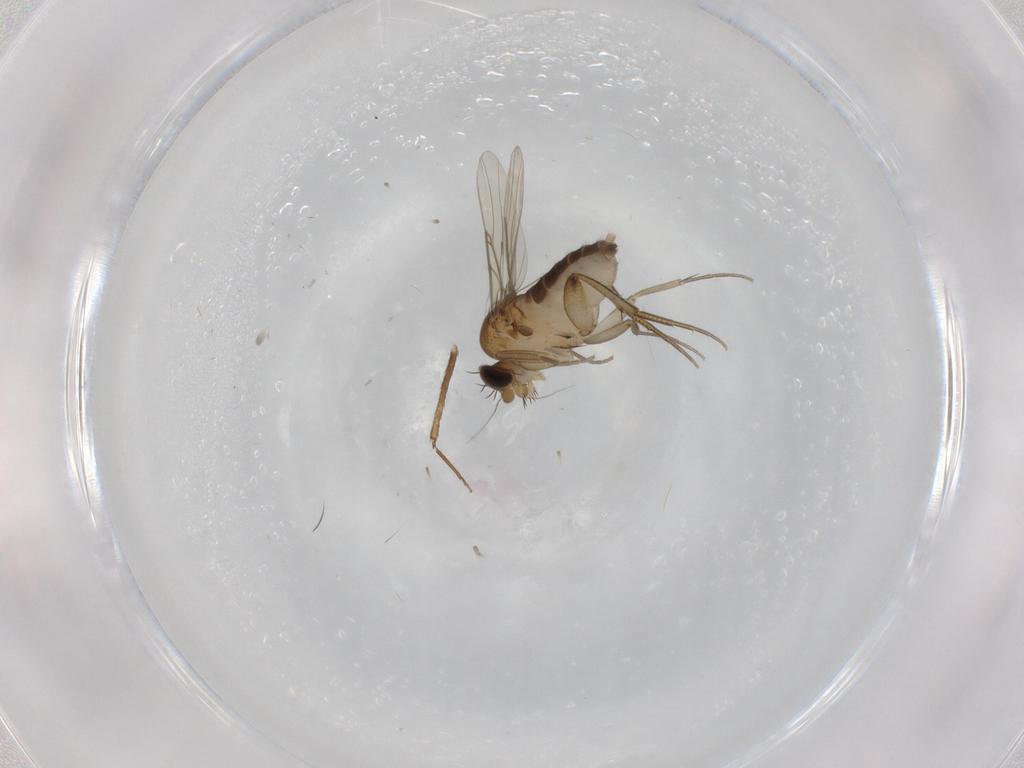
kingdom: Animalia
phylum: Arthropoda
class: Insecta
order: Diptera
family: Phoridae
